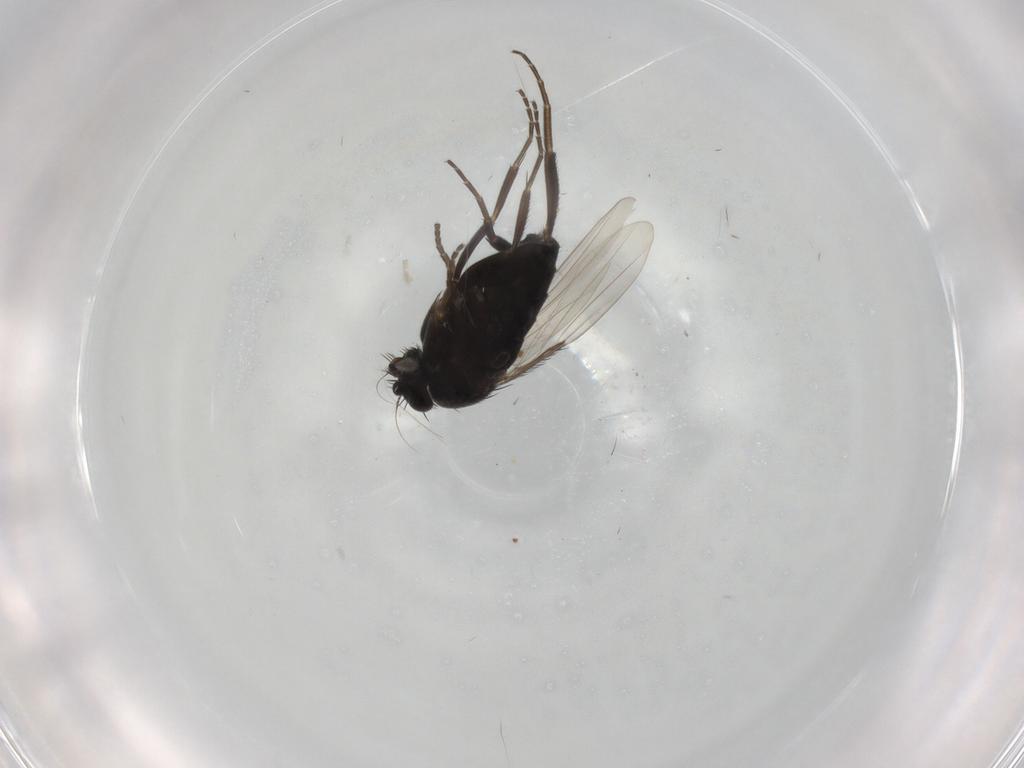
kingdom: Animalia
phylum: Arthropoda
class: Insecta
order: Diptera
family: Phoridae
